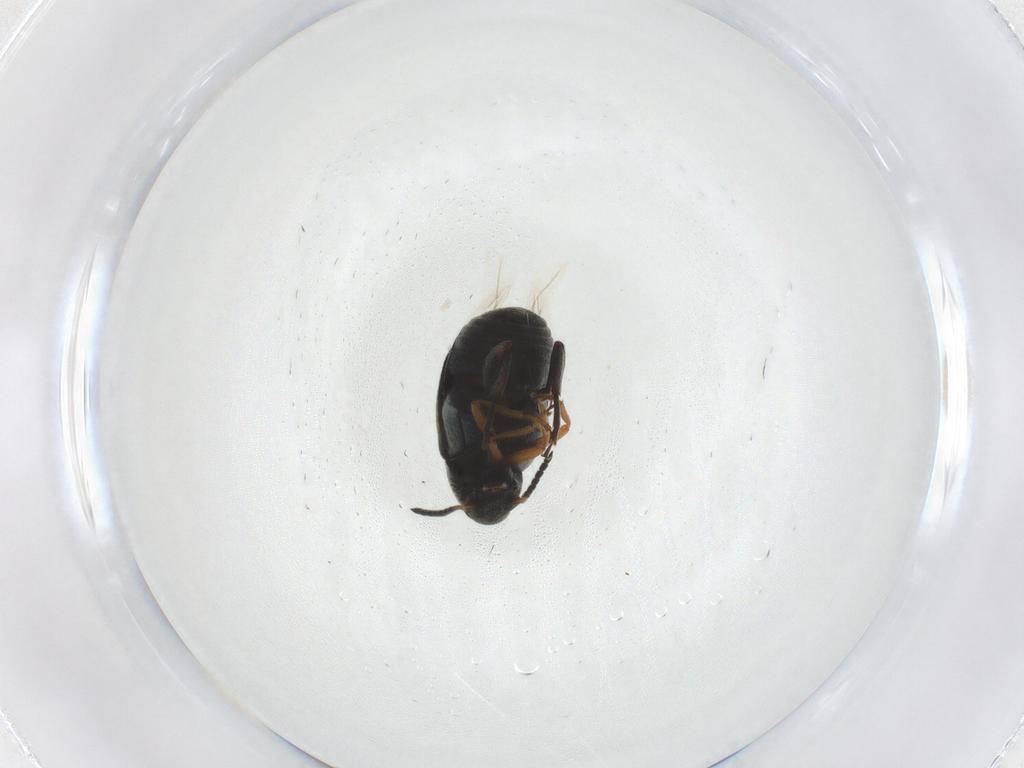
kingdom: Animalia
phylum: Arthropoda
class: Insecta
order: Coleoptera
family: Chrysomelidae
